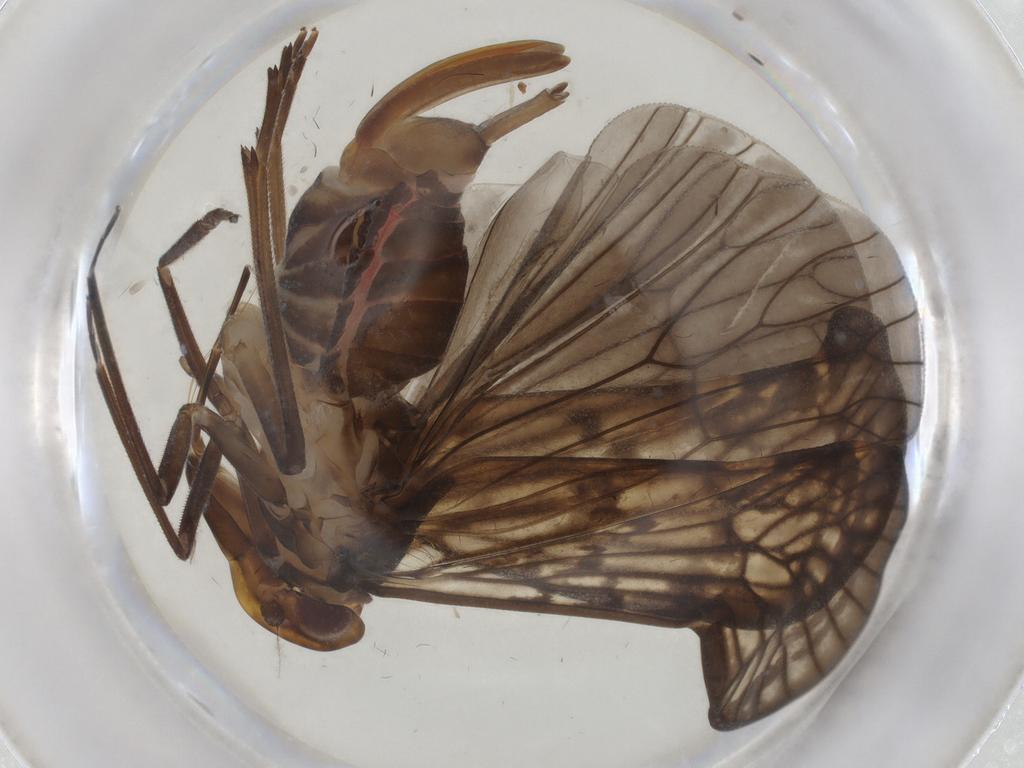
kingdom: Animalia
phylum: Arthropoda
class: Insecta
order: Hemiptera
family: Cixiidae
